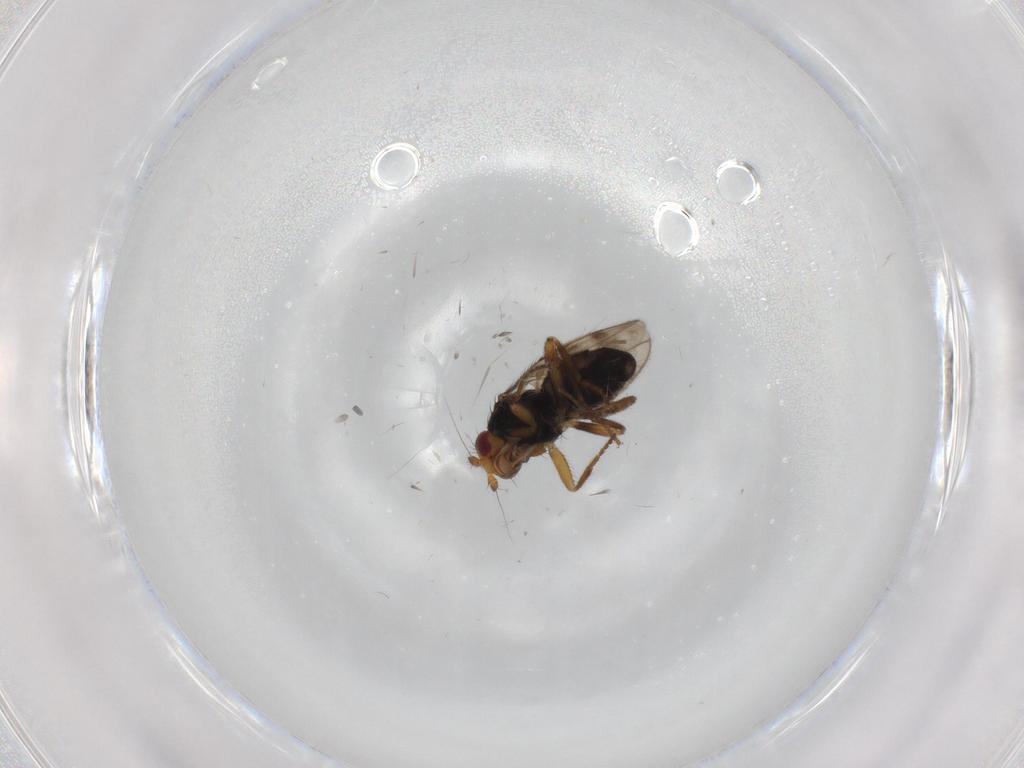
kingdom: Animalia
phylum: Arthropoda
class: Insecta
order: Diptera
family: Sphaeroceridae
